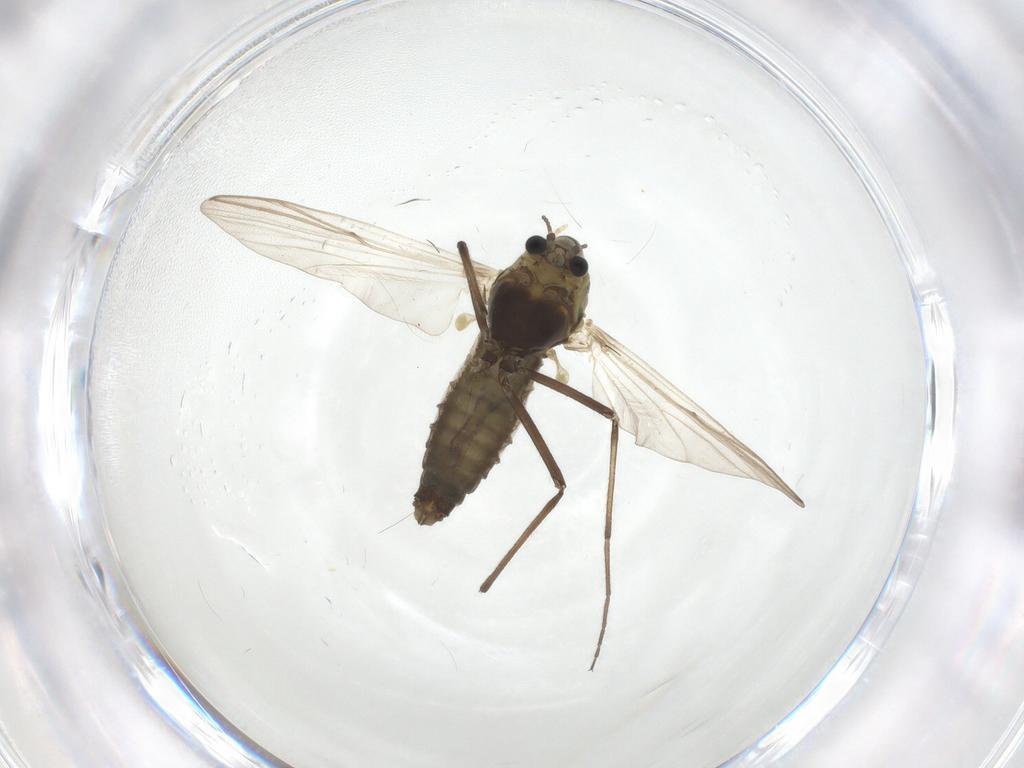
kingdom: Animalia
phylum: Arthropoda
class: Insecta
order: Diptera
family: Chironomidae
